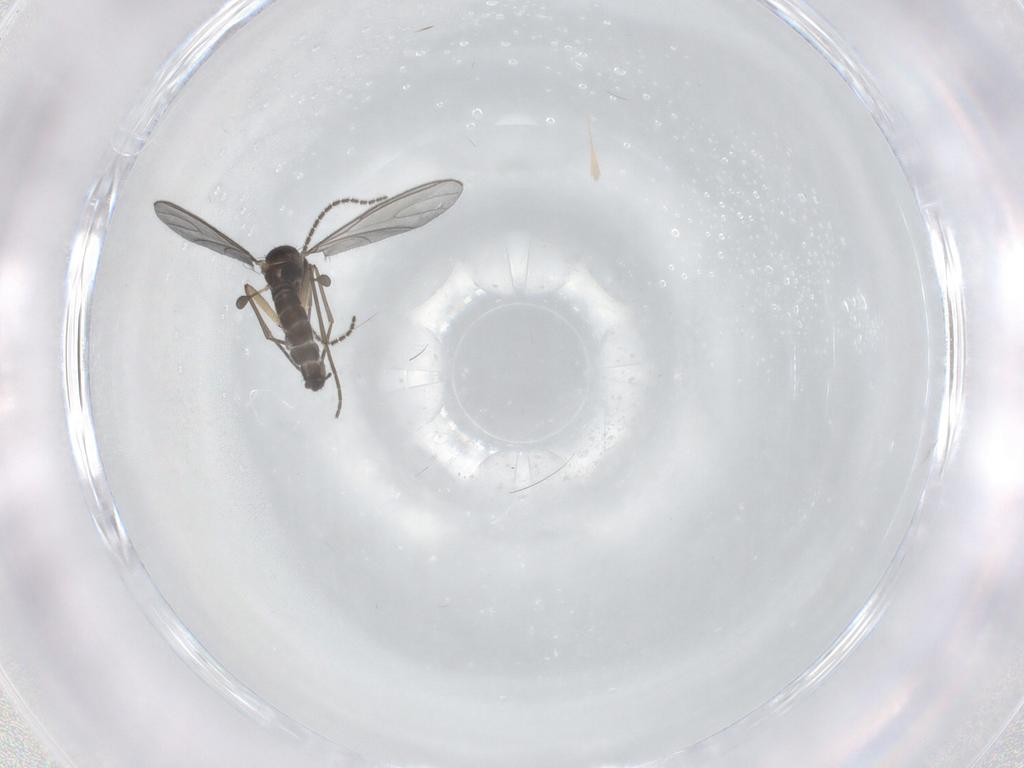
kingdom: Animalia
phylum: Arthropoda
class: Insecta
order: Diptera
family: Sciaridae
